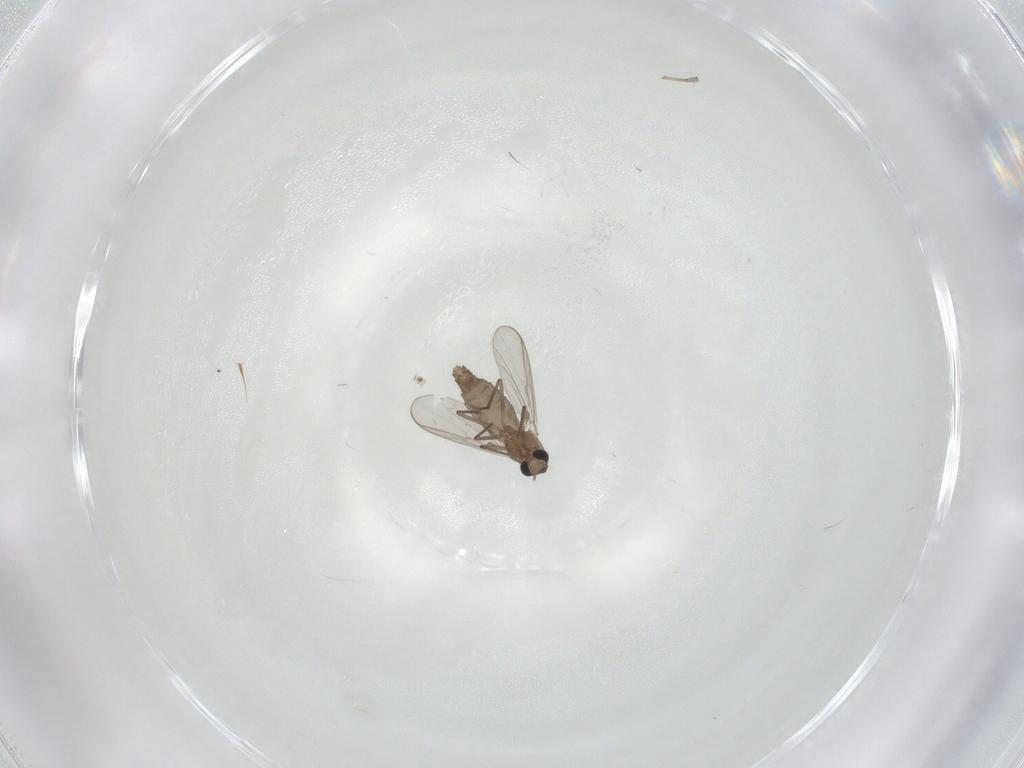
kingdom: Animalia
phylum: Arthropoda
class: Insecta
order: Diptera
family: Chironomidae
